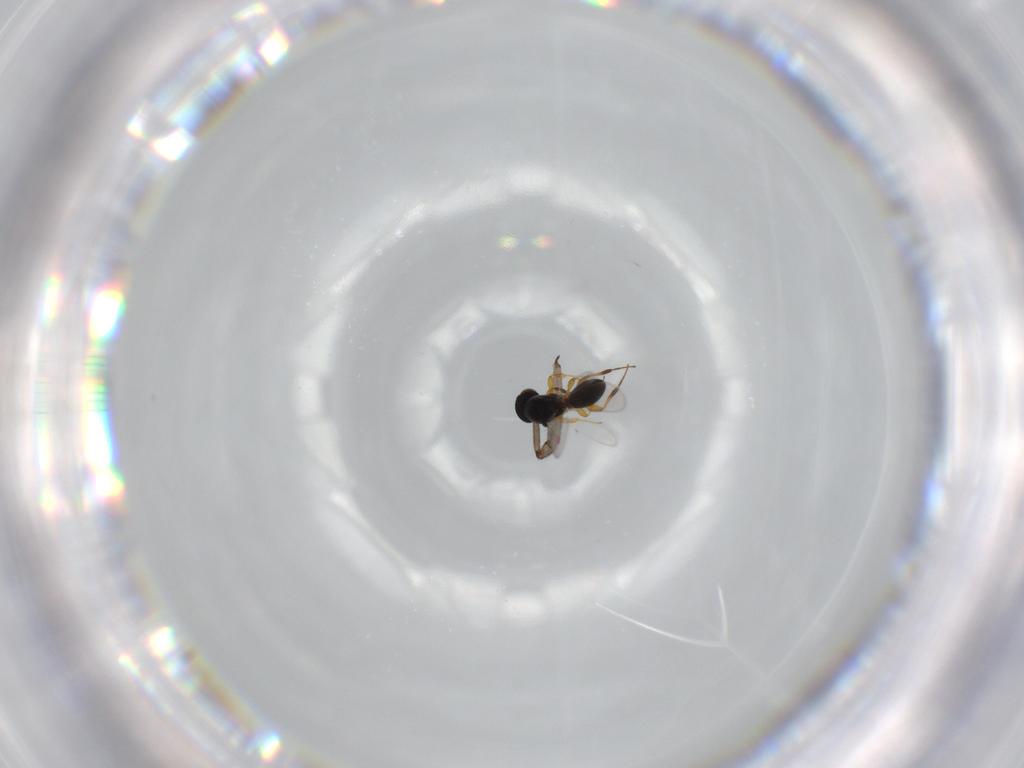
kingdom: Animalia
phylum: Arthropoda
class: Insecta
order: Hymenoptera
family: Platygastridae
